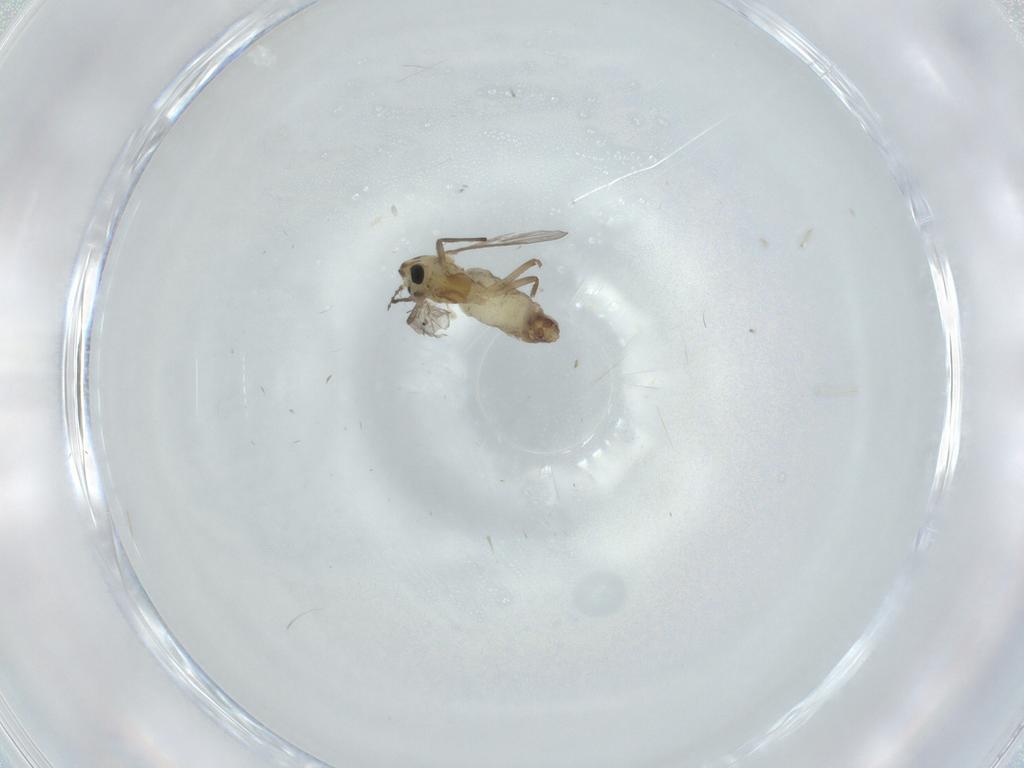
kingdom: Animalia
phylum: Arthropoda
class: Insecta
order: Diptera
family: Chironomidae
